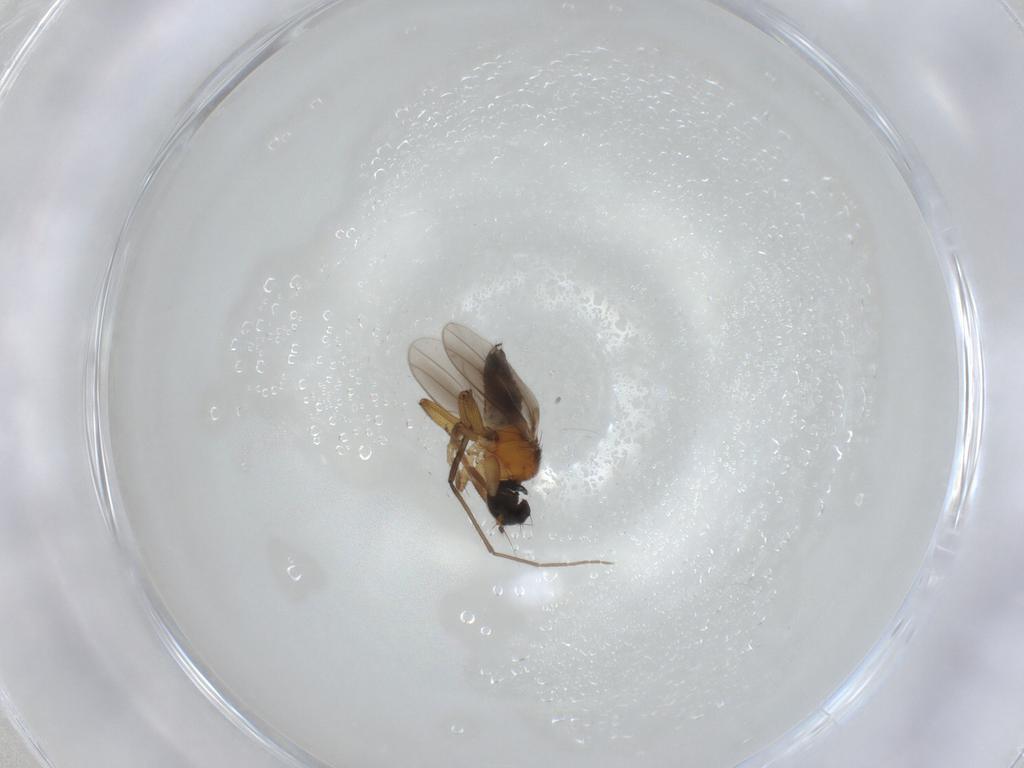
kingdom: Animalia
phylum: Arthropoda
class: Insecta
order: Diptera
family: Hybotidae
